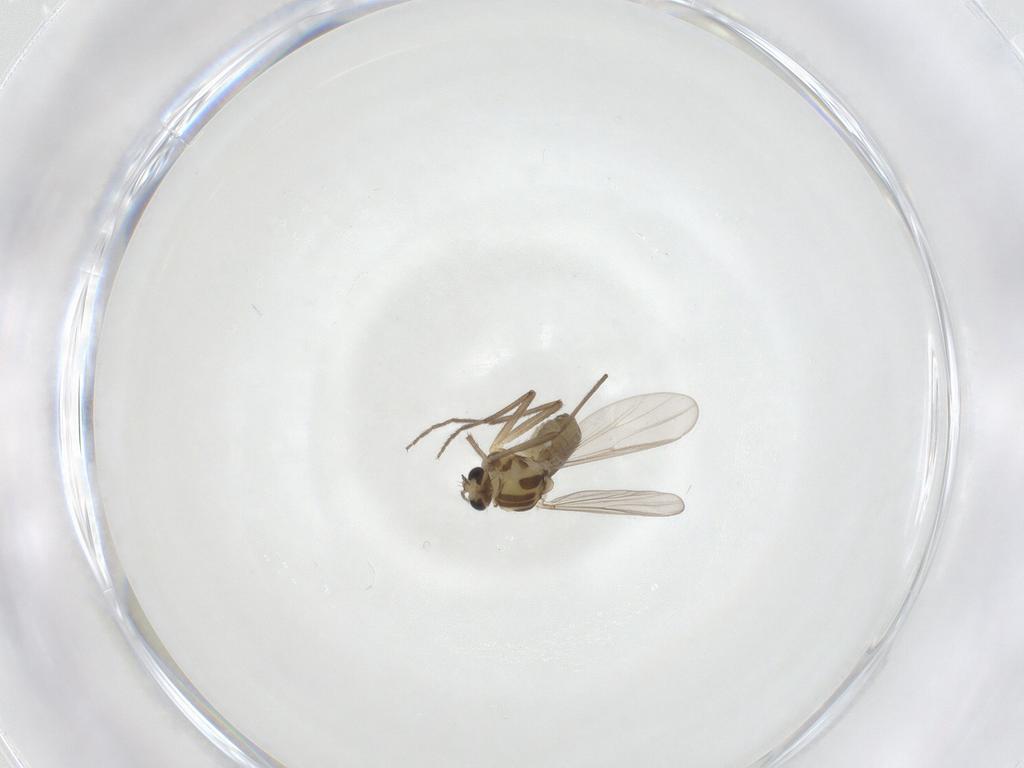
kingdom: Animalia
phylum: Arthropoda
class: Insecta
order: Diptera
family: Chironomidae
